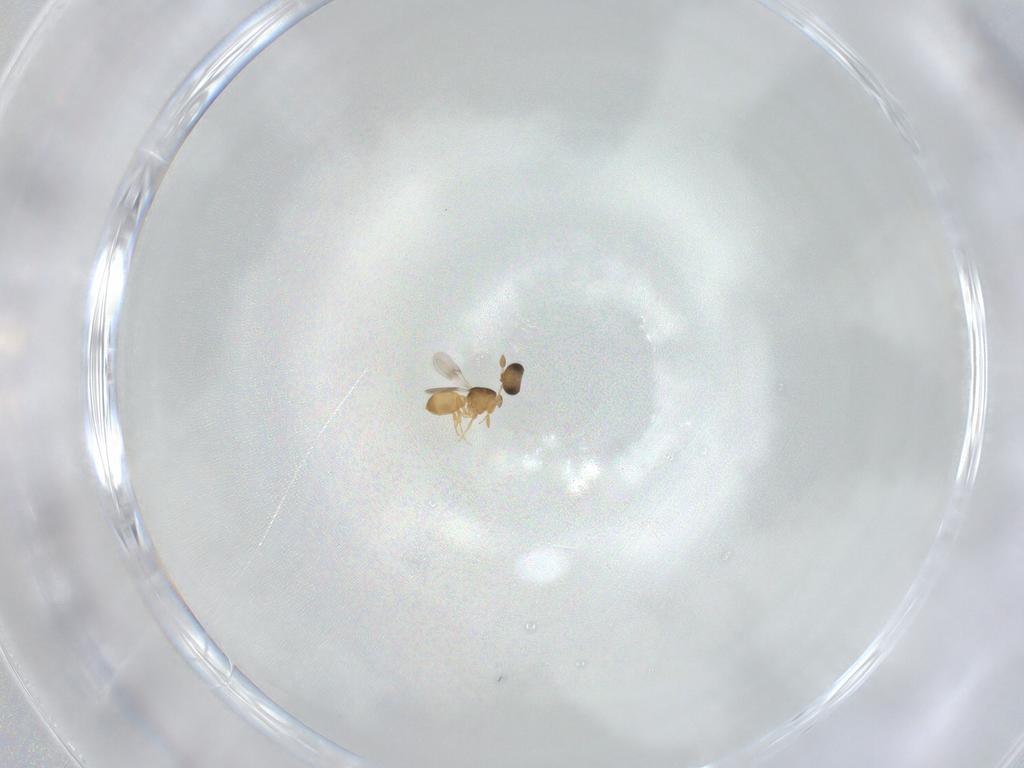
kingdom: Animalia
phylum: Arthropoda
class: Insecta
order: Hymenoptera
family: Scelionidae
